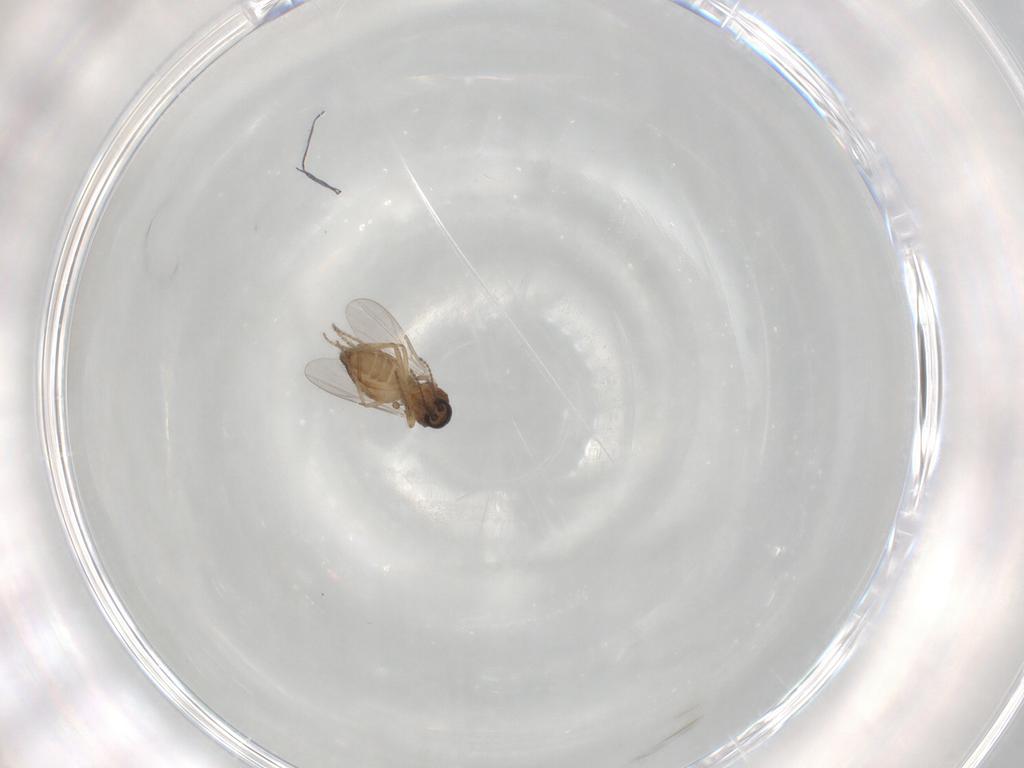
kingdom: Animalia
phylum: Arthropoda
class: Insecta
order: Diptera
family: Ceratopogonidae
